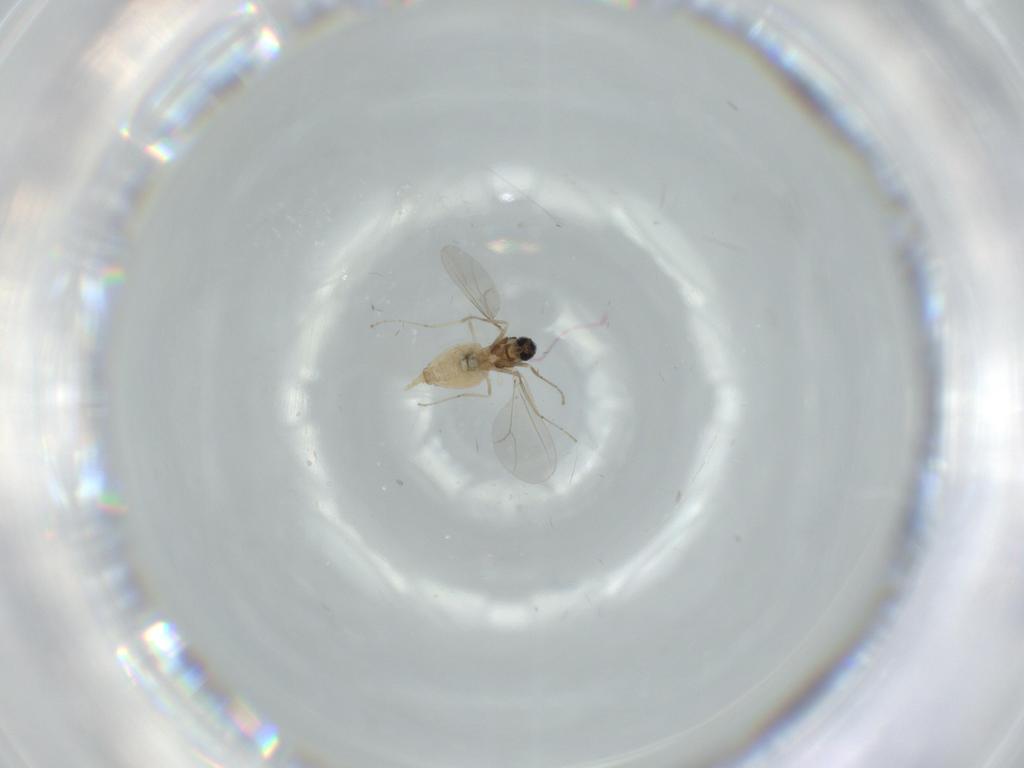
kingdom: Animalia
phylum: Arthropoda
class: Insecta
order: Diptera
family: Cecidomyiidae
